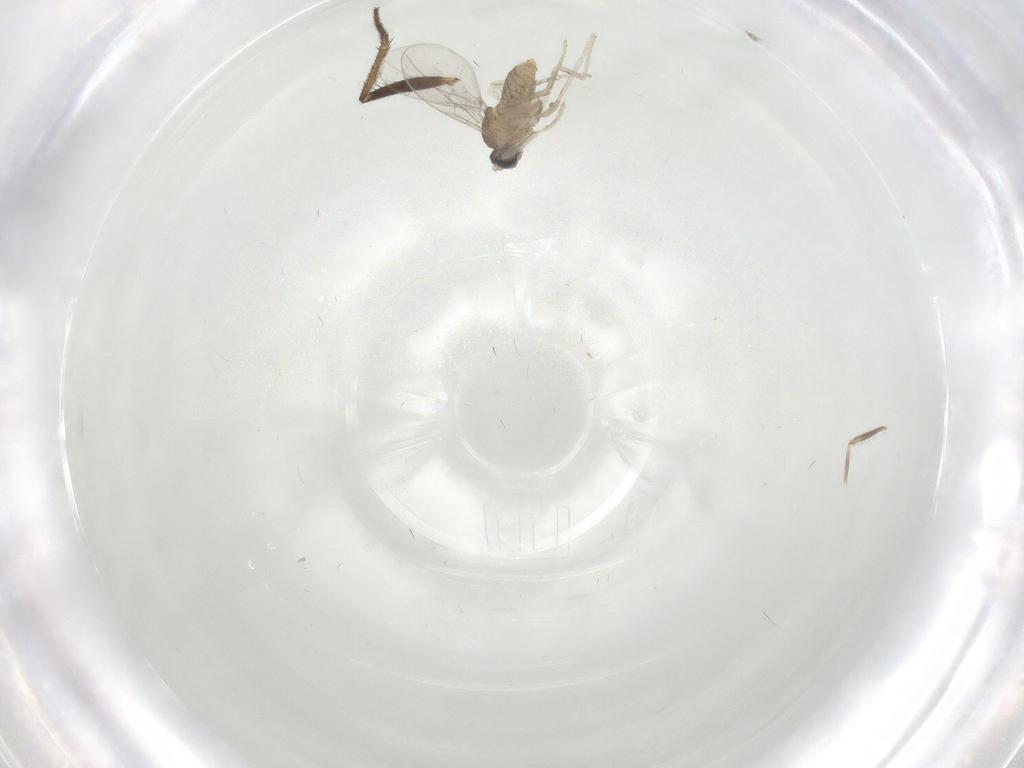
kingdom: Animalia
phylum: Arthropoda
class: Insecta
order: Diptera
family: Cecidomyiidae
